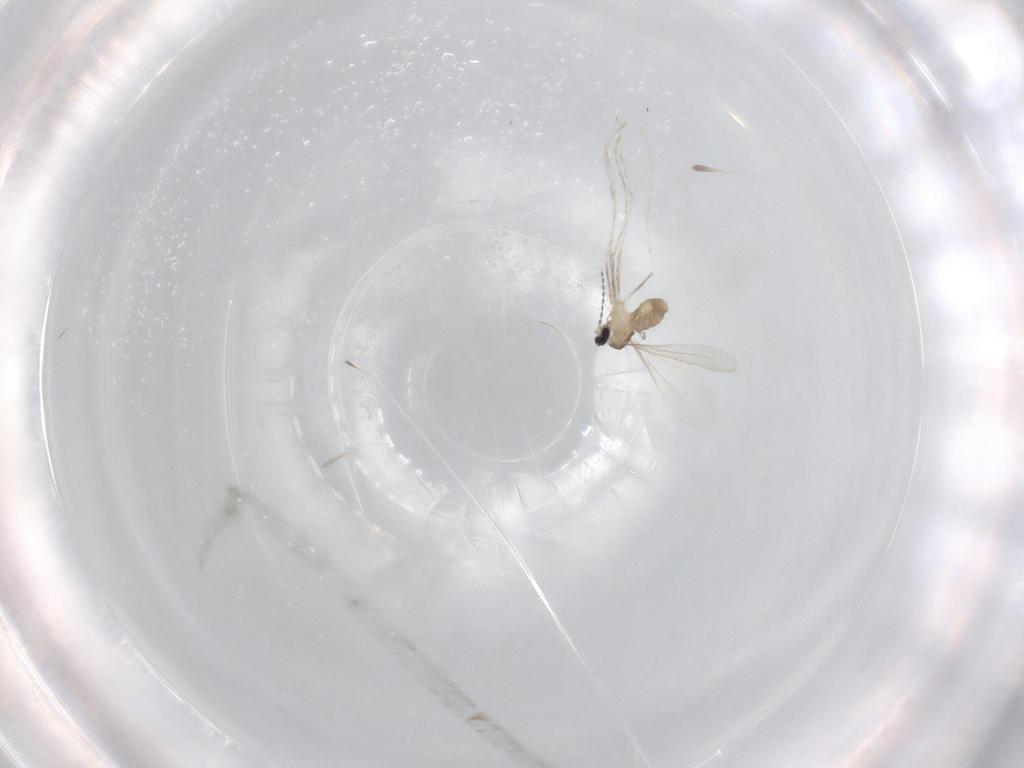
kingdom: Animalia
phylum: Arthropoda
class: Insecta
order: Diptera
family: Cecidomyiidae
